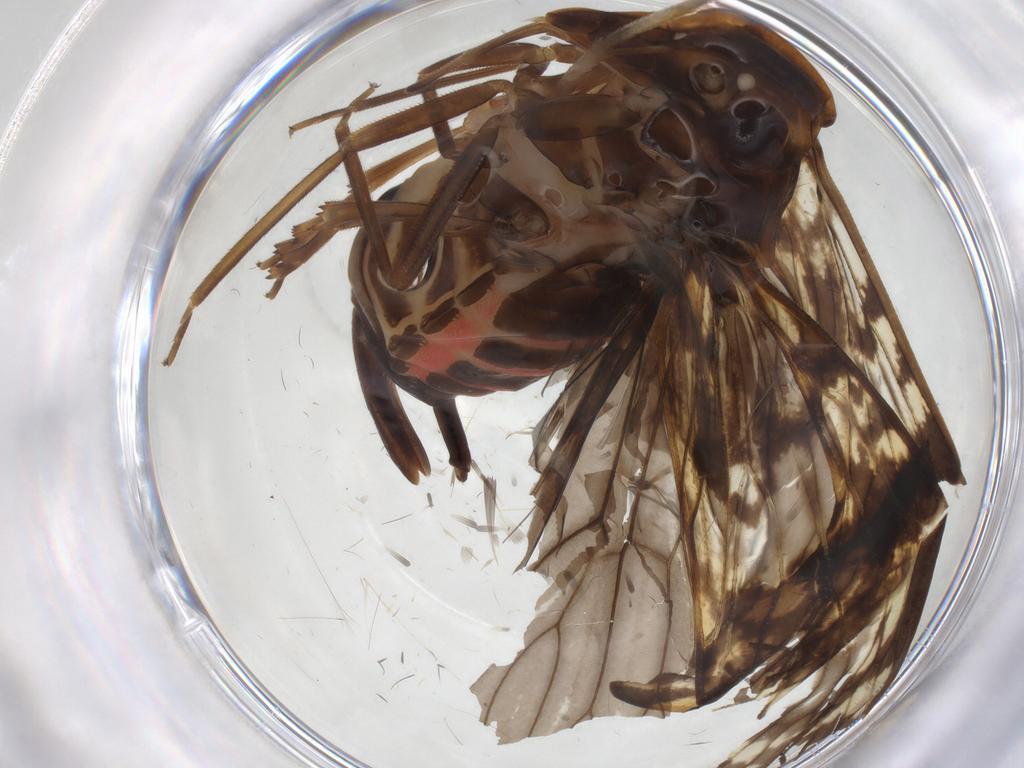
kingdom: Animalia
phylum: Arthropoda
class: Insecta
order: Hemiptera
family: Cixiidae
